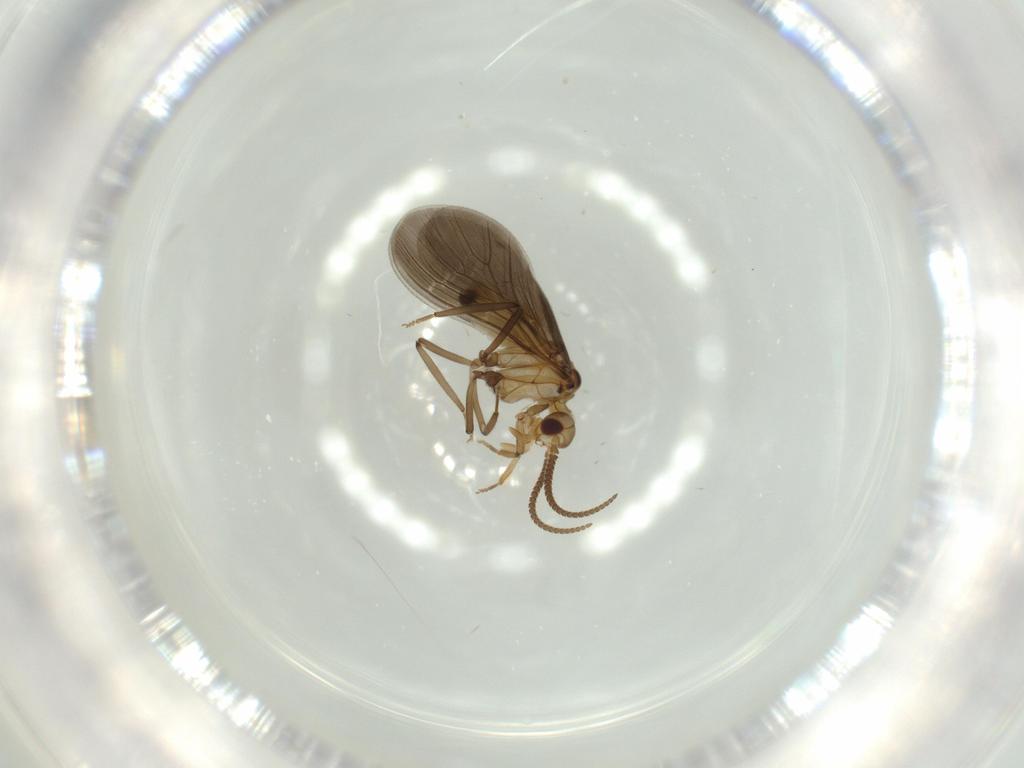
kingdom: Animalia
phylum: Arthropoda
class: Insecta
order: Neuroptera
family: Coniopterygidae
